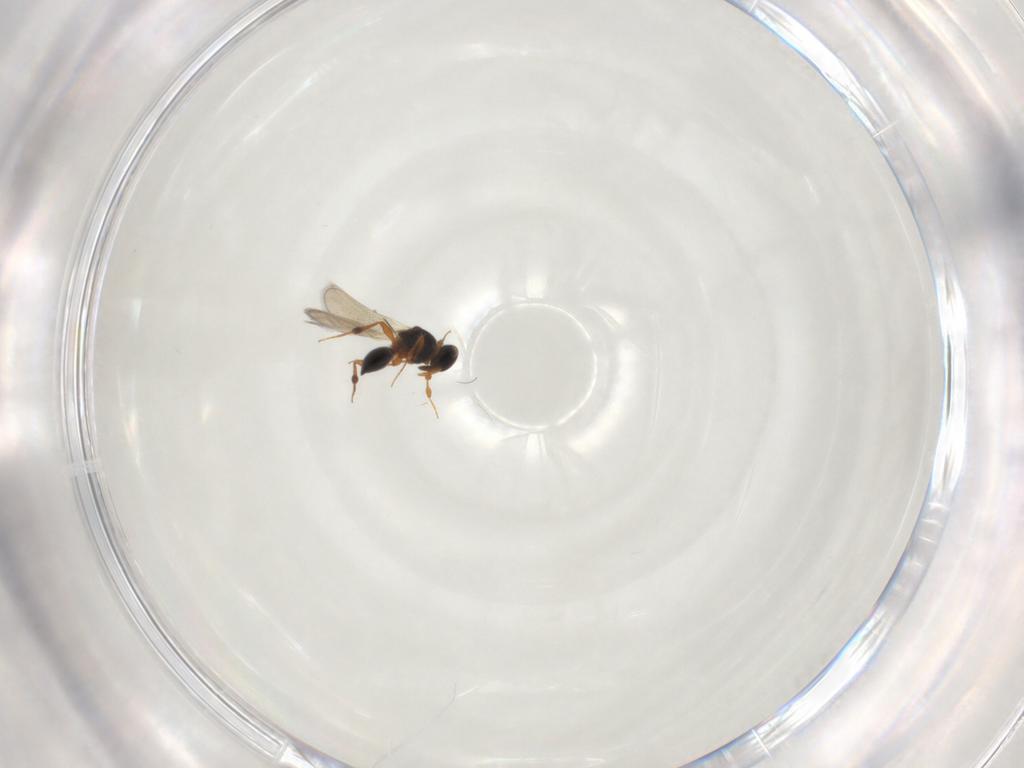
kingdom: Animalia
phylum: Arthropoda
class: Insecta
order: Hymenoptera
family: Platygastridae
